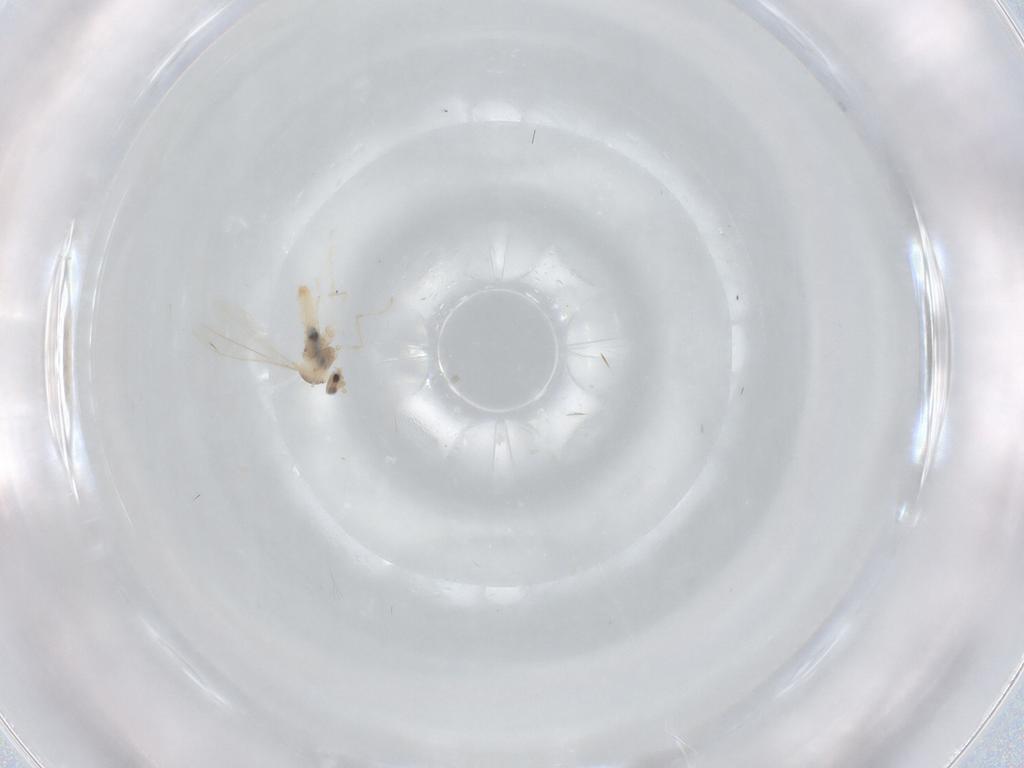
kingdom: Animalia
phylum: Arthropoda
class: Insecta
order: Diptera
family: Cecidomyiidae
